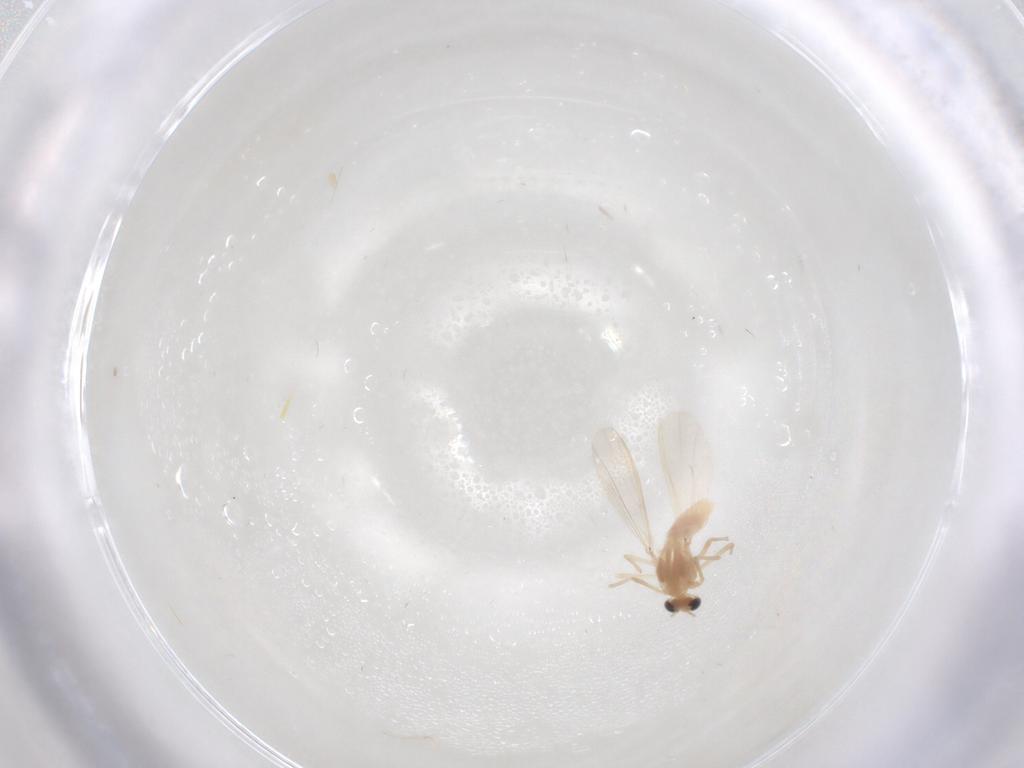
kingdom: Animalia
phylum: Arthropoda
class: Insecta
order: Diptera
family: Chironomidae
